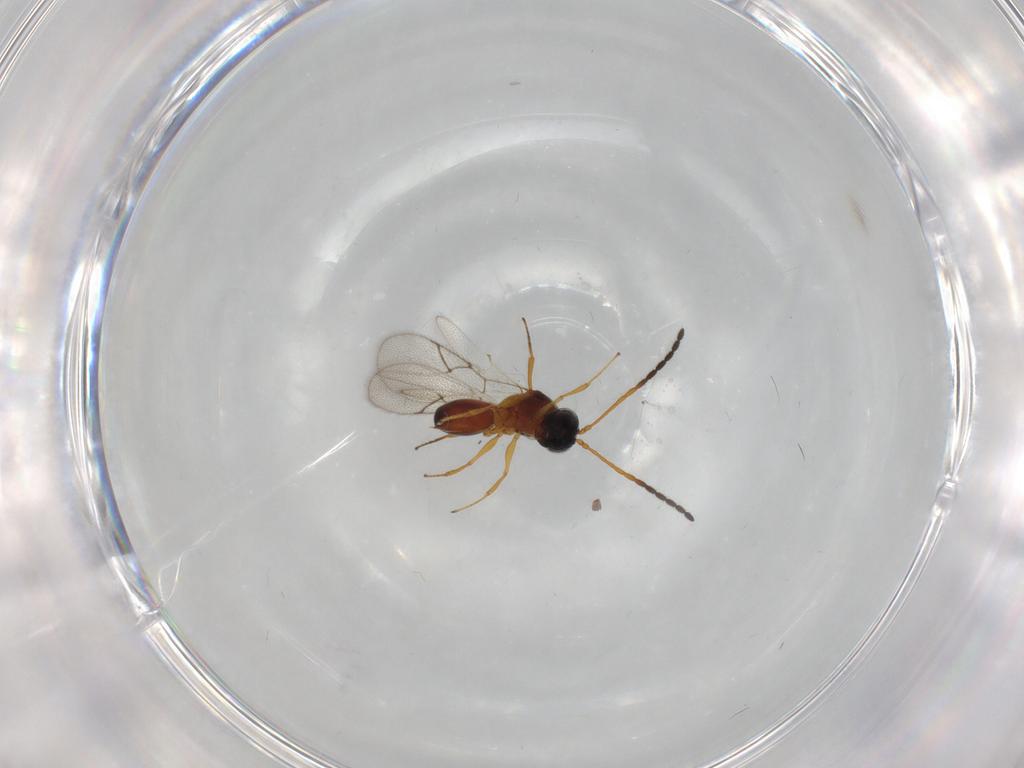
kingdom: Animalia
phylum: Arthropoda
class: Insecta
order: Hymenoptera
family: Figitidae
